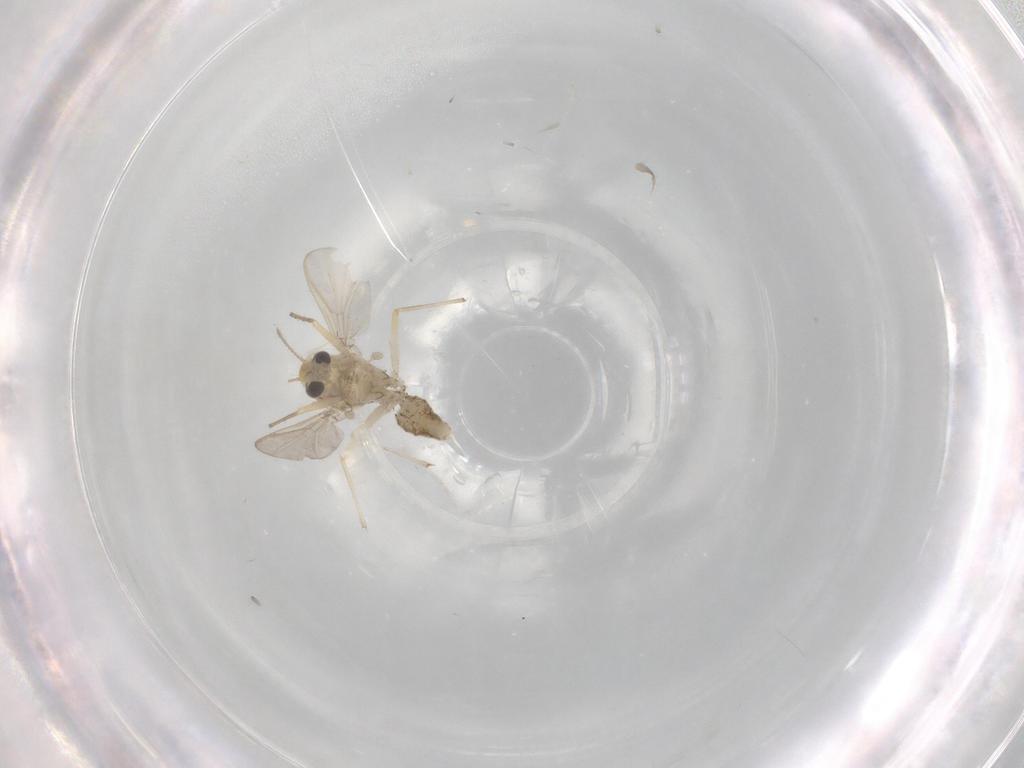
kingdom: Animalia
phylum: Arthropoda
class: Insecta
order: Diptera
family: Chironomidae
